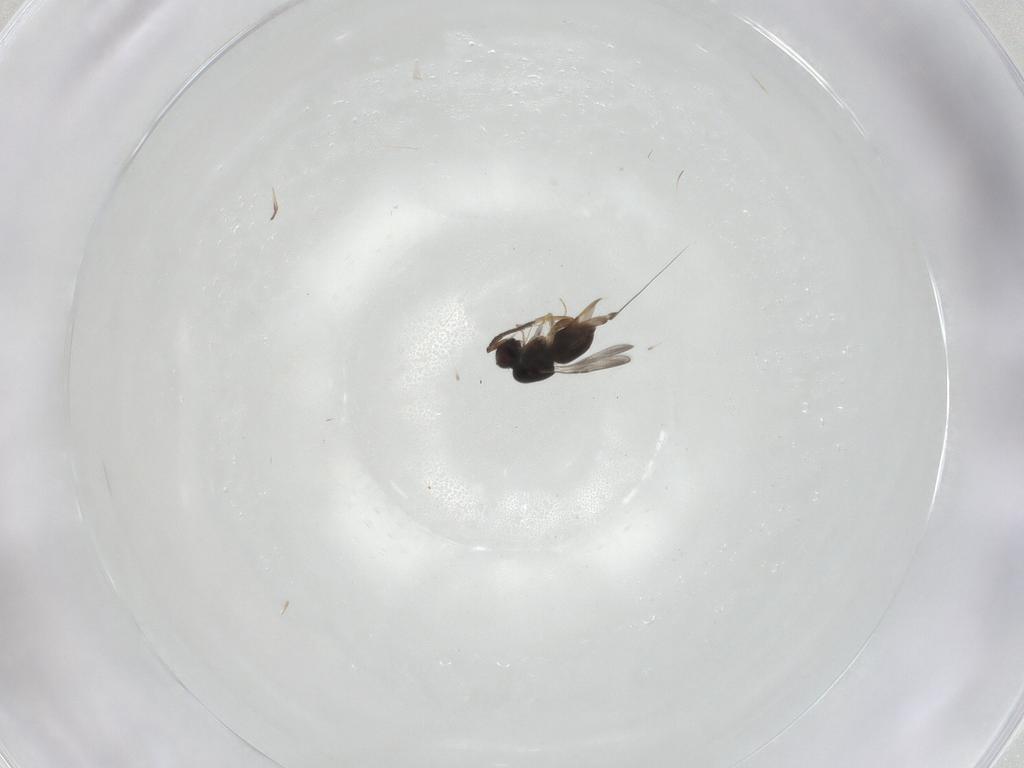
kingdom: Animalia
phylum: Arthropoda
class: Insecta
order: Hymenoptera
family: Ceraphronidae
